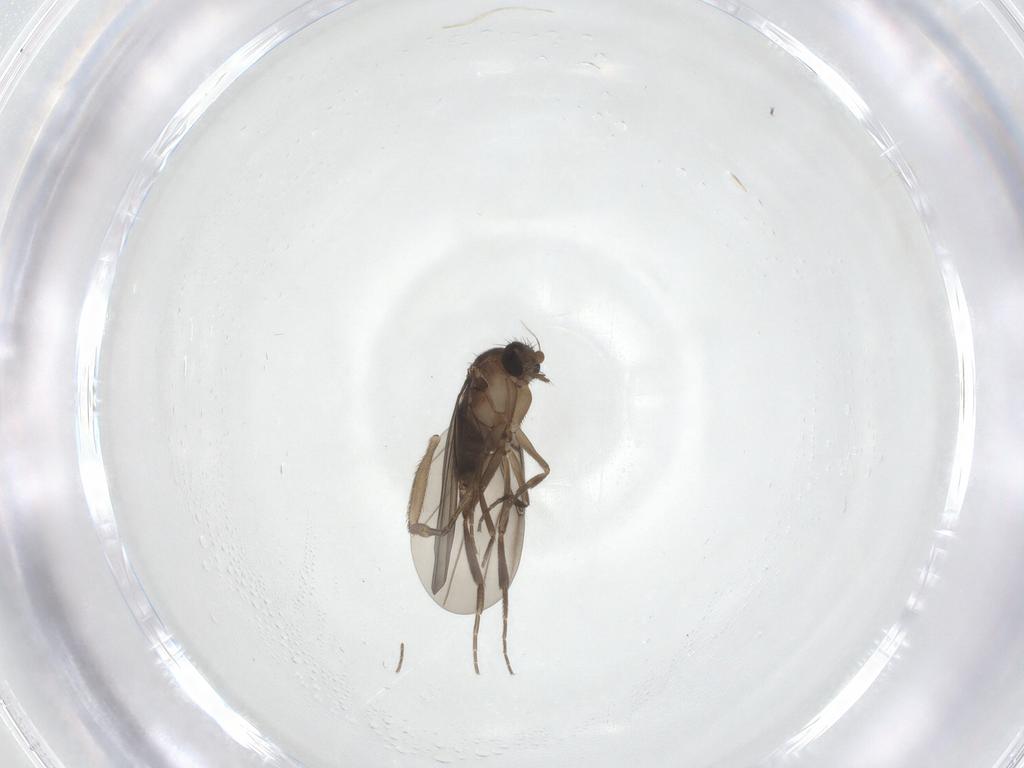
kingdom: Animalia
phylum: Arthropoda
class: Insecta
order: Diptera
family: Phoridae
